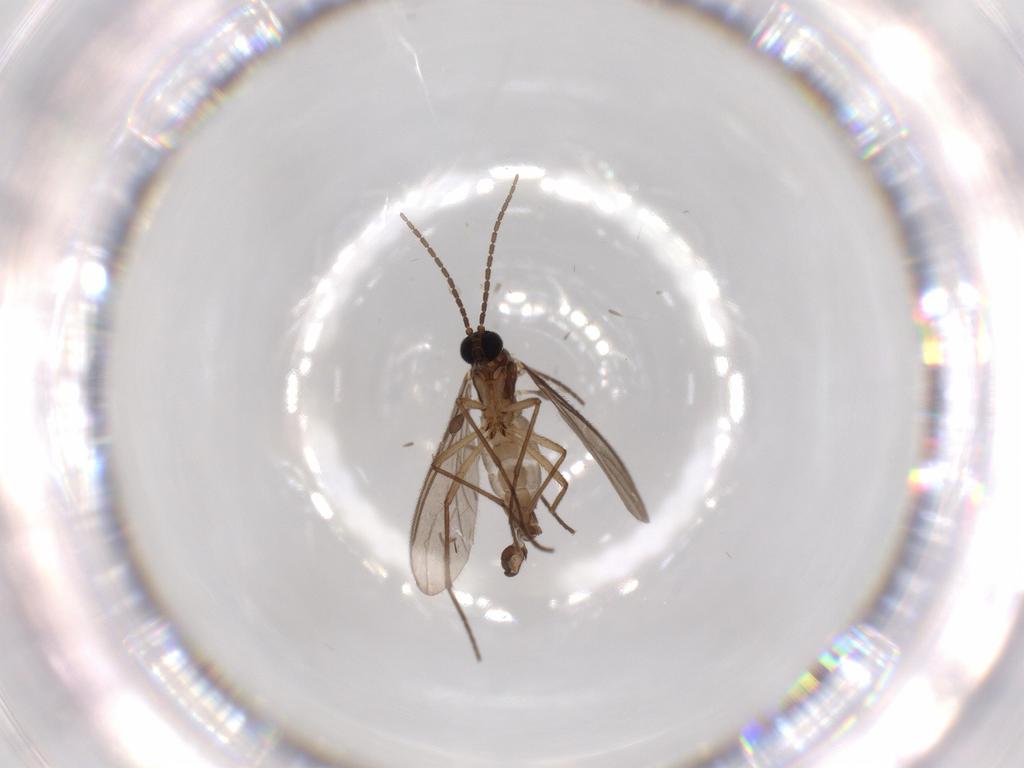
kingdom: Animalia
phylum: Arthropoda
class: Insecta
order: Diptera
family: Sciaridae
